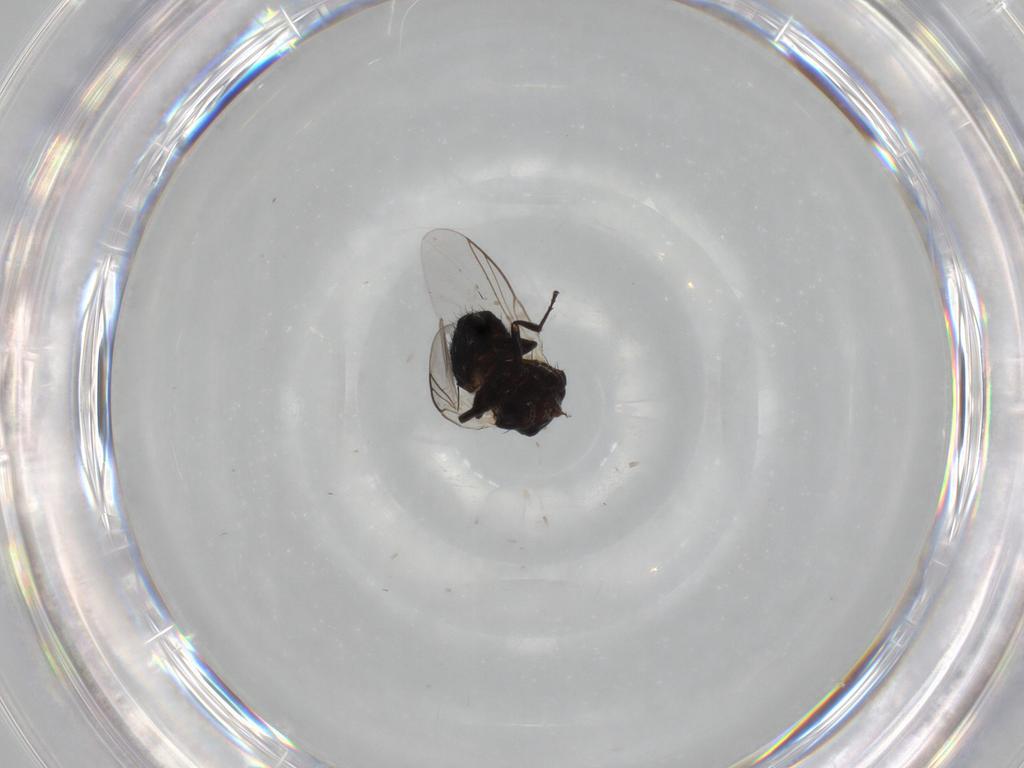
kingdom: Animalia
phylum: Arthropoda
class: Insecta
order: Diptera
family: Agromyzidae
